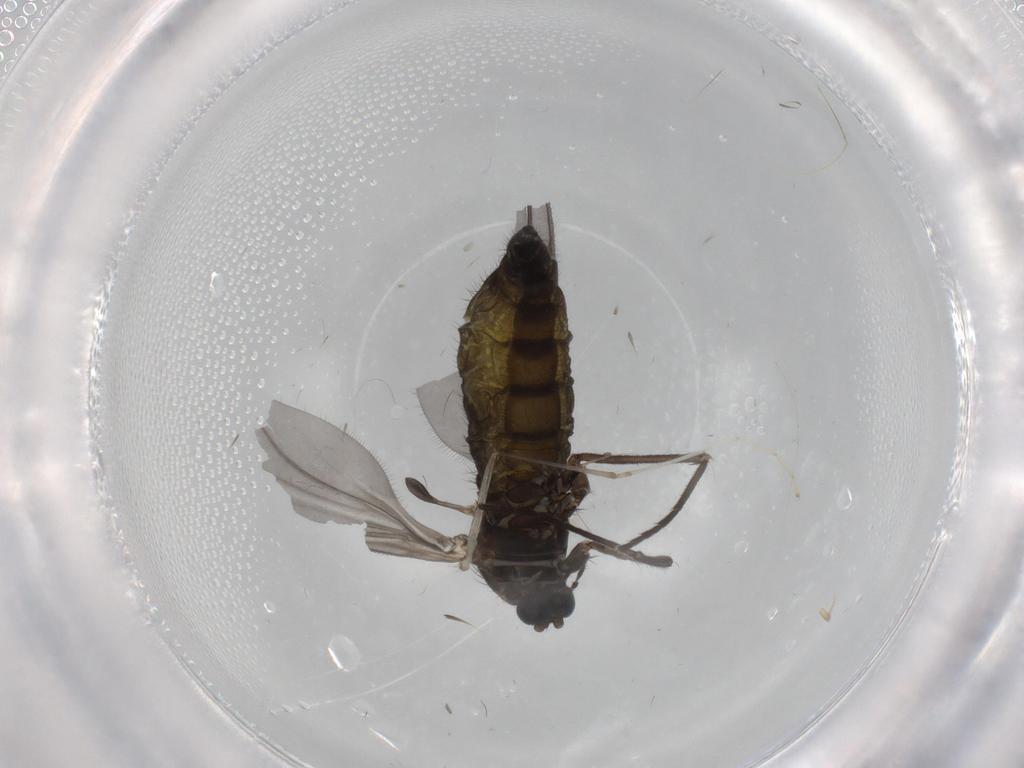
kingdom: Animalia
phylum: Arthropoda
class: Insecta
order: Diptera
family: Sciaridae
